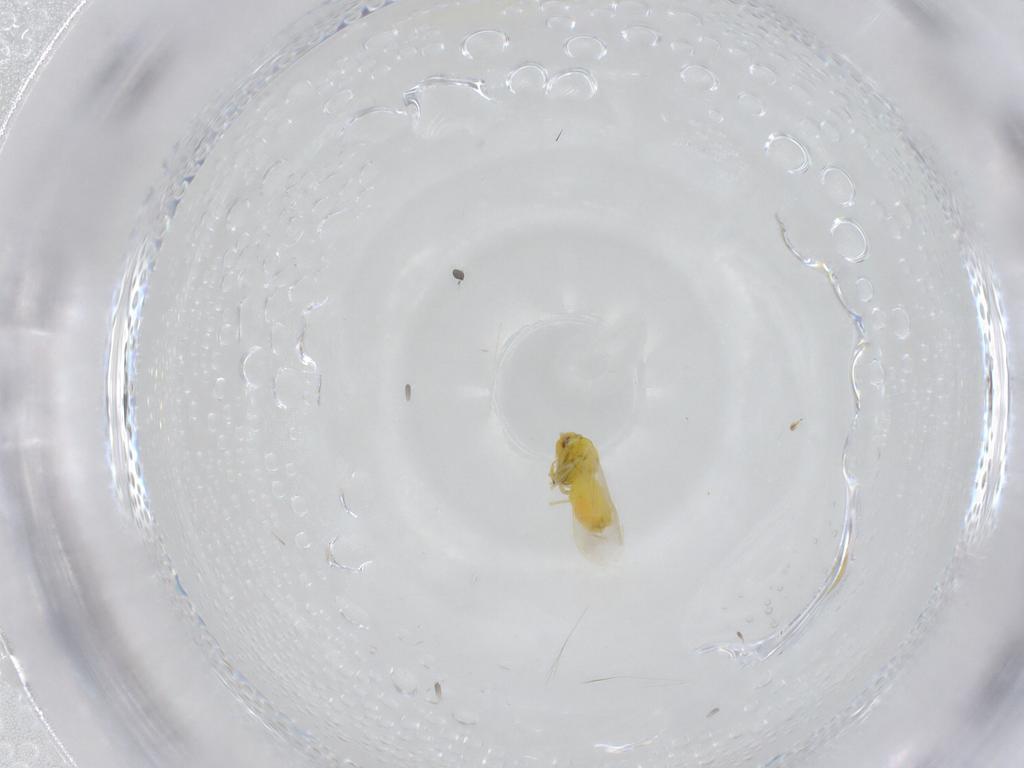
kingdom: Animalia
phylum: Arthropoda
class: Insecta
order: Hemiptera
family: Aleyrodidae
